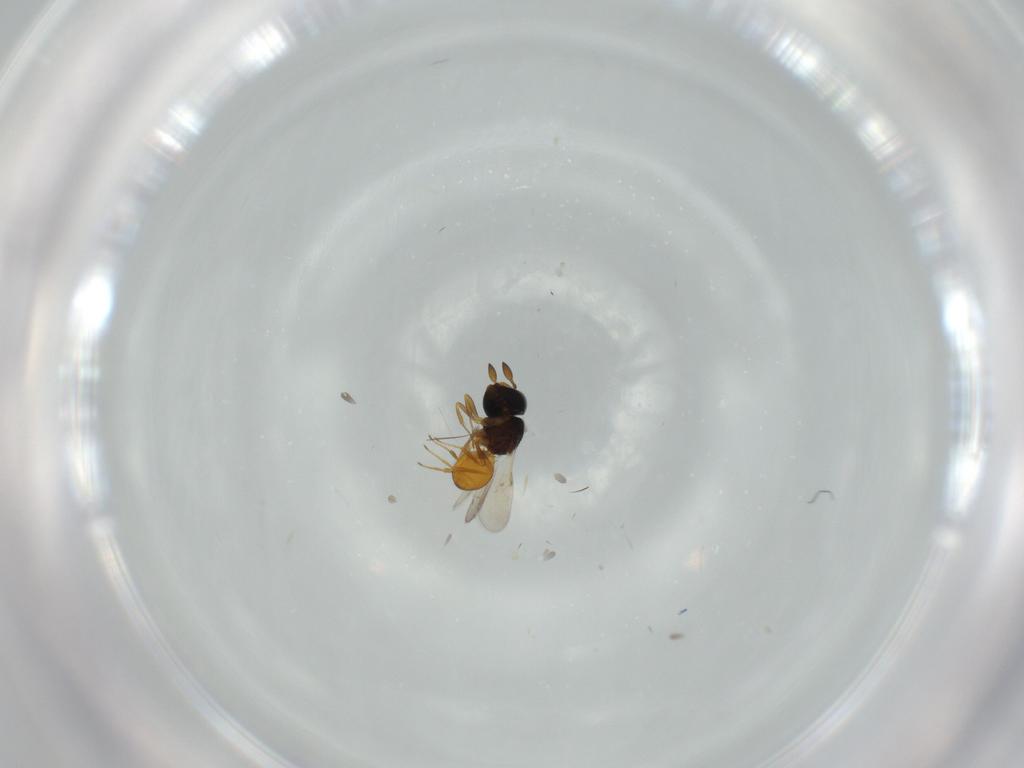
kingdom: Animalia
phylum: Arthropoda
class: Insecta
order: Hymenoptera
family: Scelionidae
